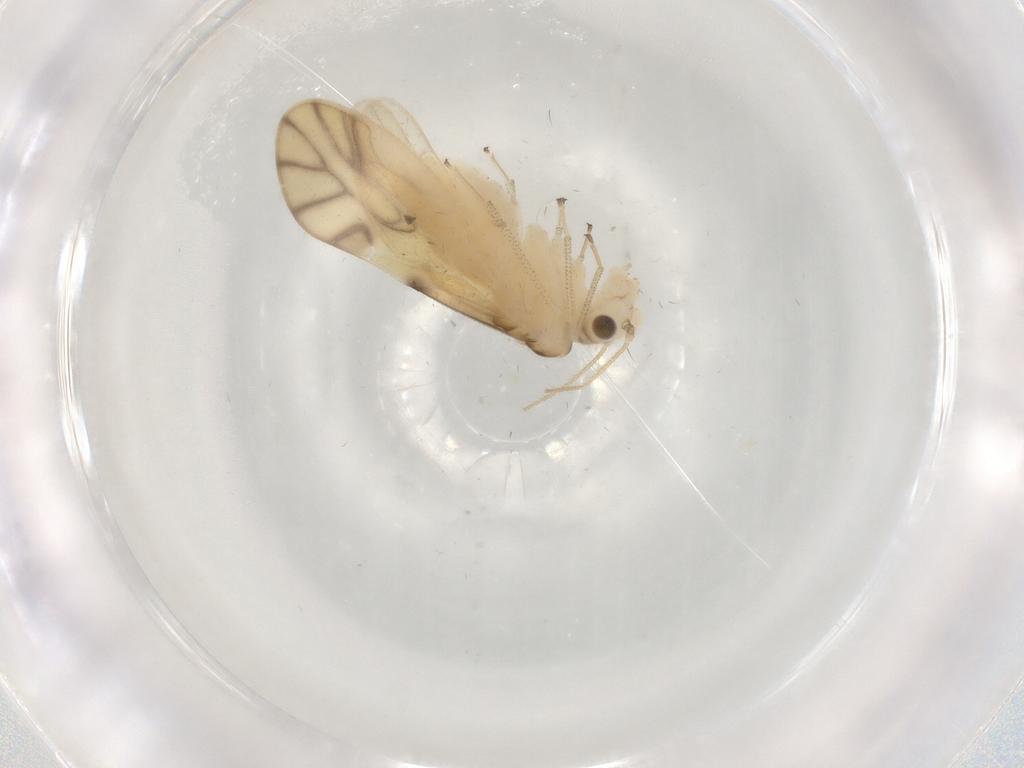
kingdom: Animalia
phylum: Arthropoda
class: Insecta
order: Psocodea
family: Caeciliusidae
